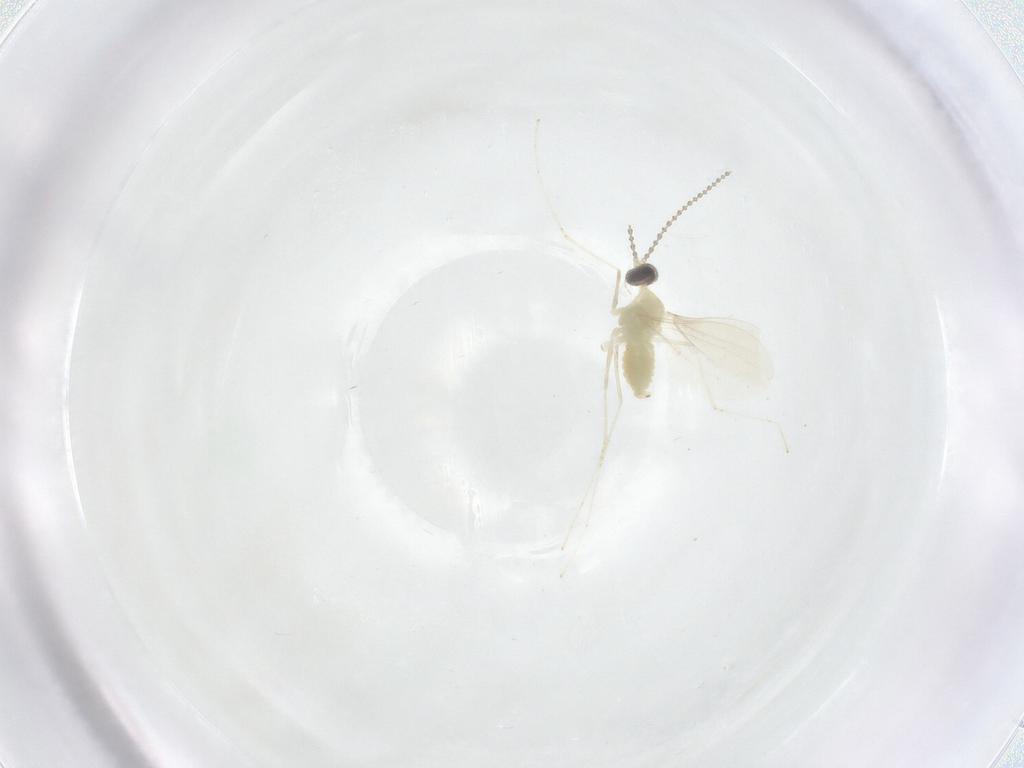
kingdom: Animalia
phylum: Arthropoda
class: Insecta
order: Diptera
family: Cecidomyiidae
